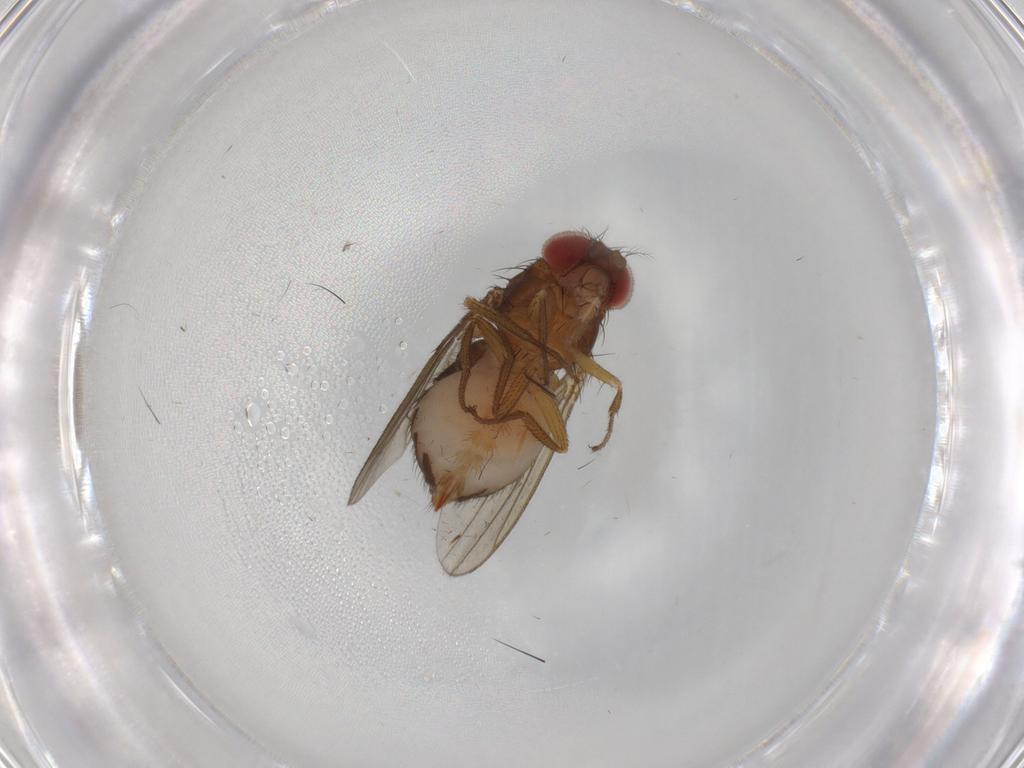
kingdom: Animalia
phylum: Arthropoda
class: Insecta
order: Diptera
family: Drosophilidae
